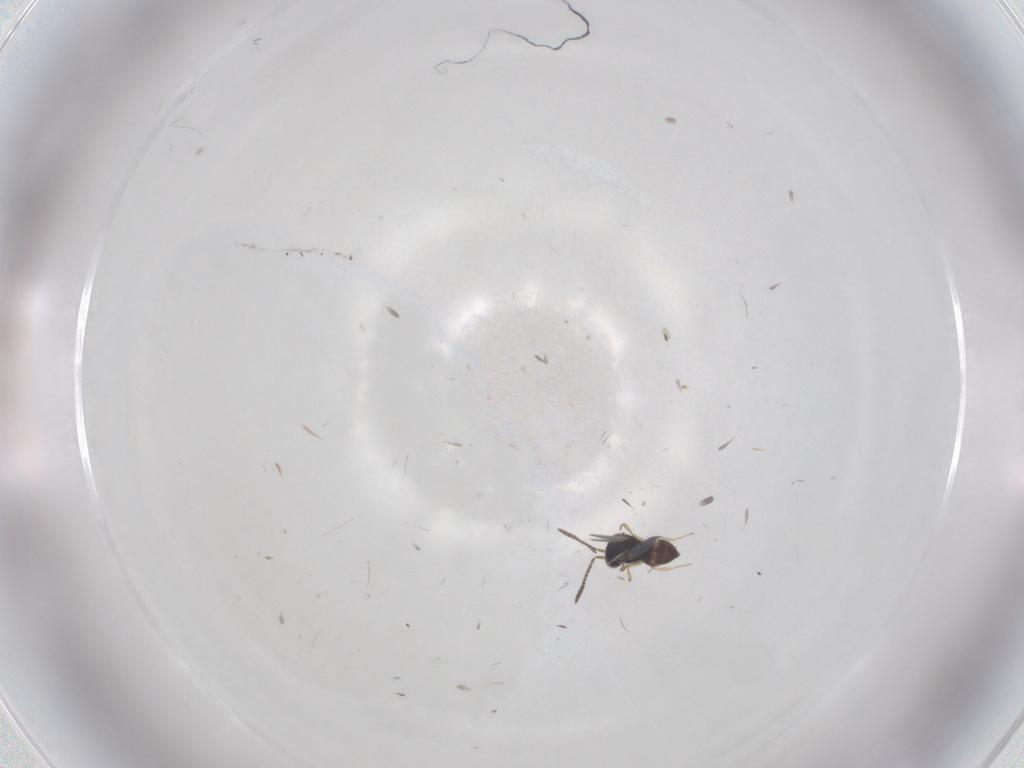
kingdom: Animalia
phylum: Arthropoda
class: Insecta
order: Hymenoptera
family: Scelionidae
